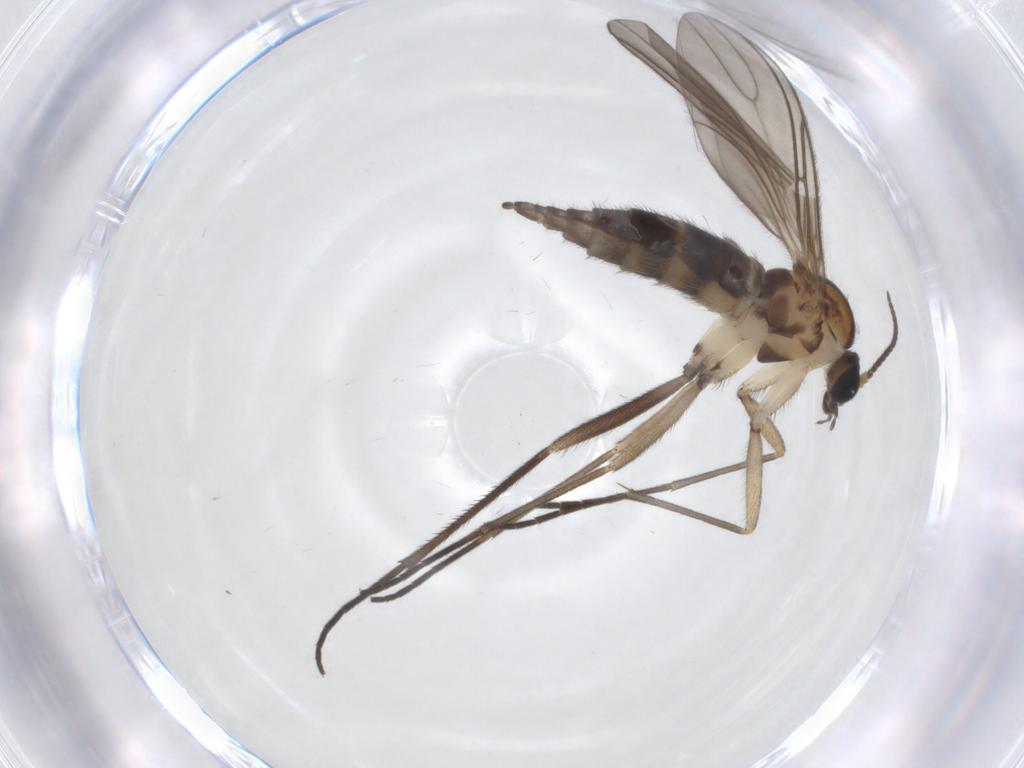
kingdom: Animalia
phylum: Arthropoda
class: Insecta
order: Diptera
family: Sciaridae
